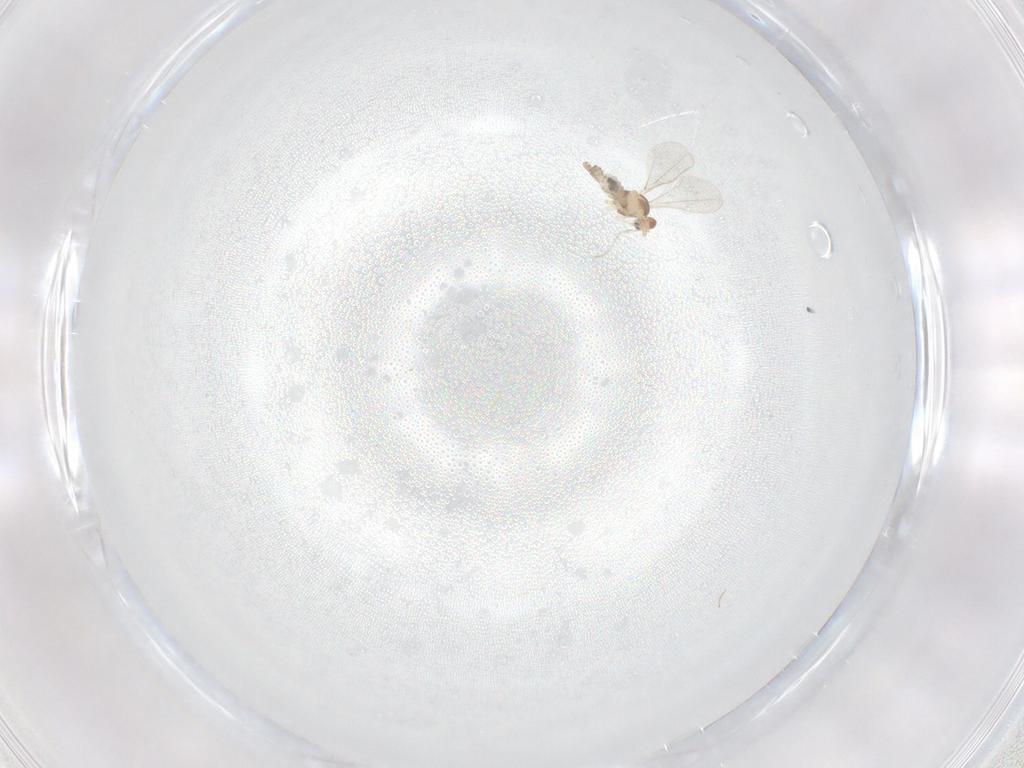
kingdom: Animalia
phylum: Arthropoda
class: Insecta
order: Diptera
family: Cecidomyiidae
